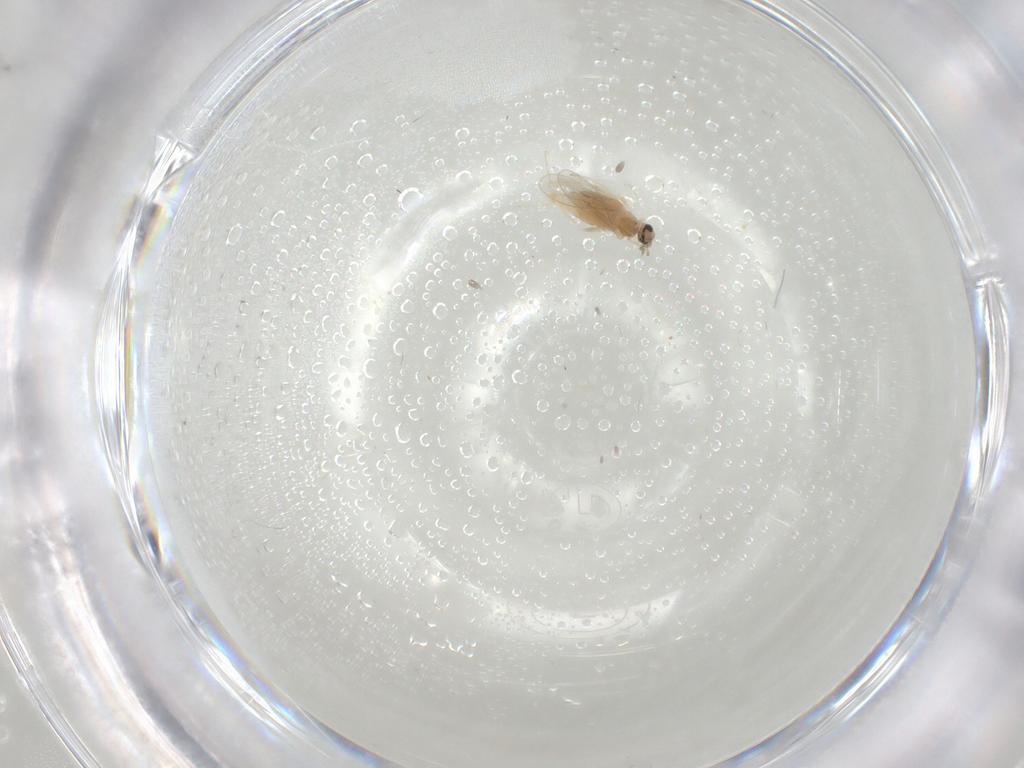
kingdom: Animalia
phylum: Arthropoda
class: Insecta
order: Diptera
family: Cecidomyiidae
